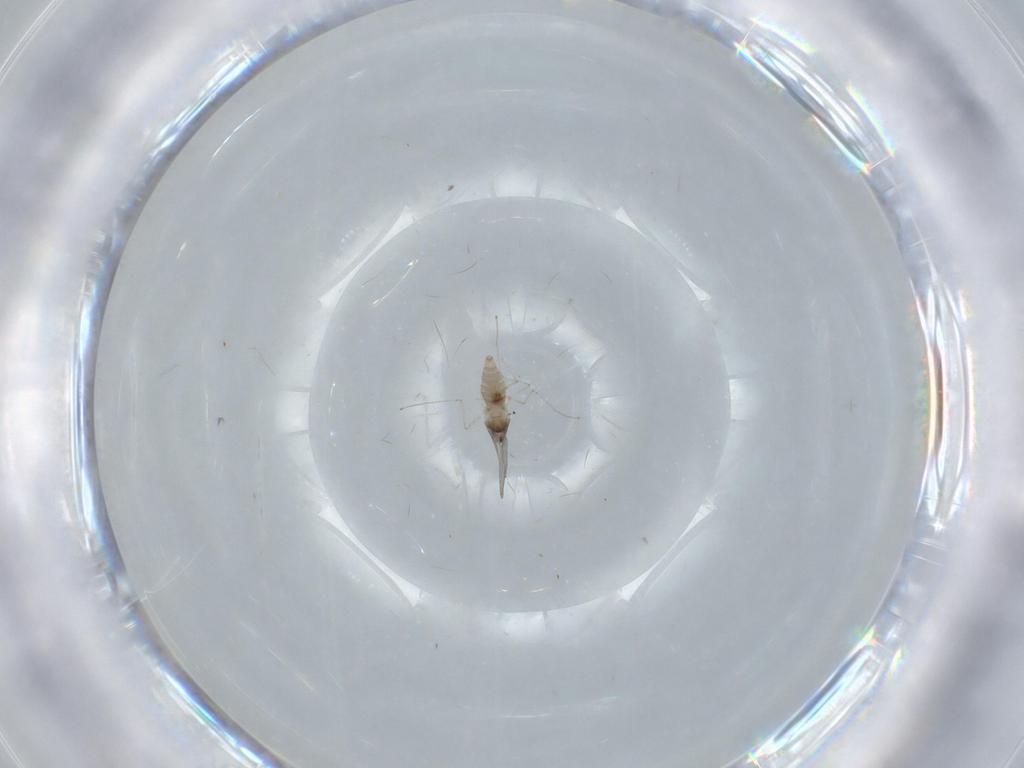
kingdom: Animalia
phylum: Arthropoda
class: Insecta
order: Diptera
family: Cecidomyiidae
